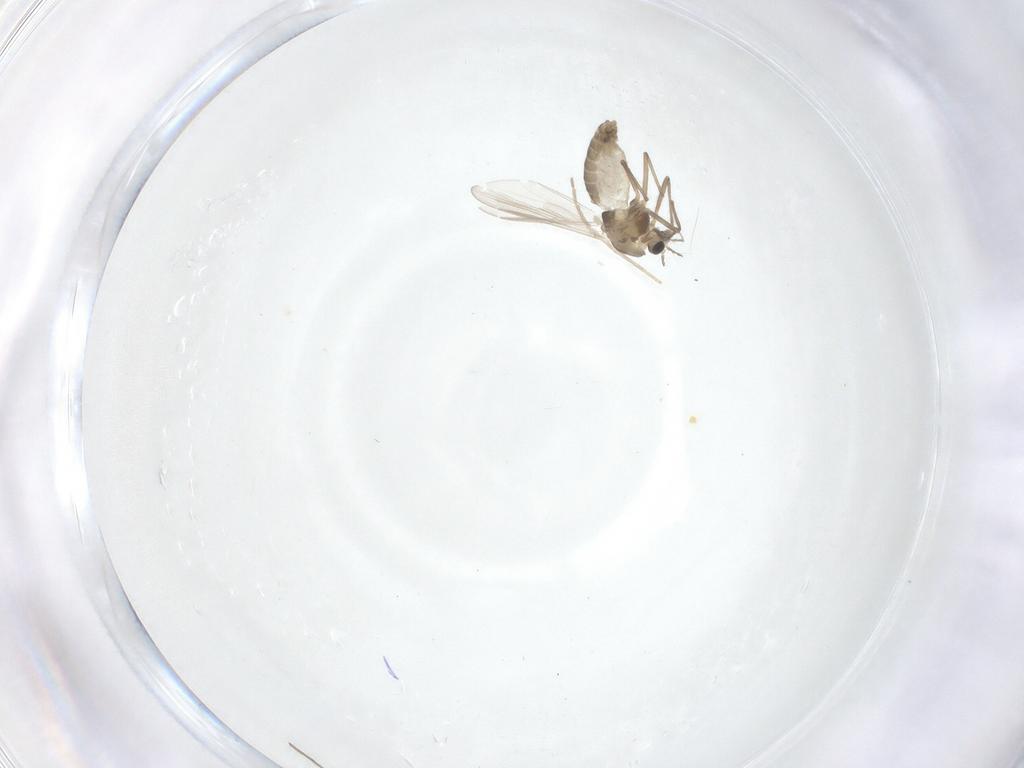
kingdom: Animalia
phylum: Arthropoda
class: Insecta
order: Diptera
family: Chironomidae
